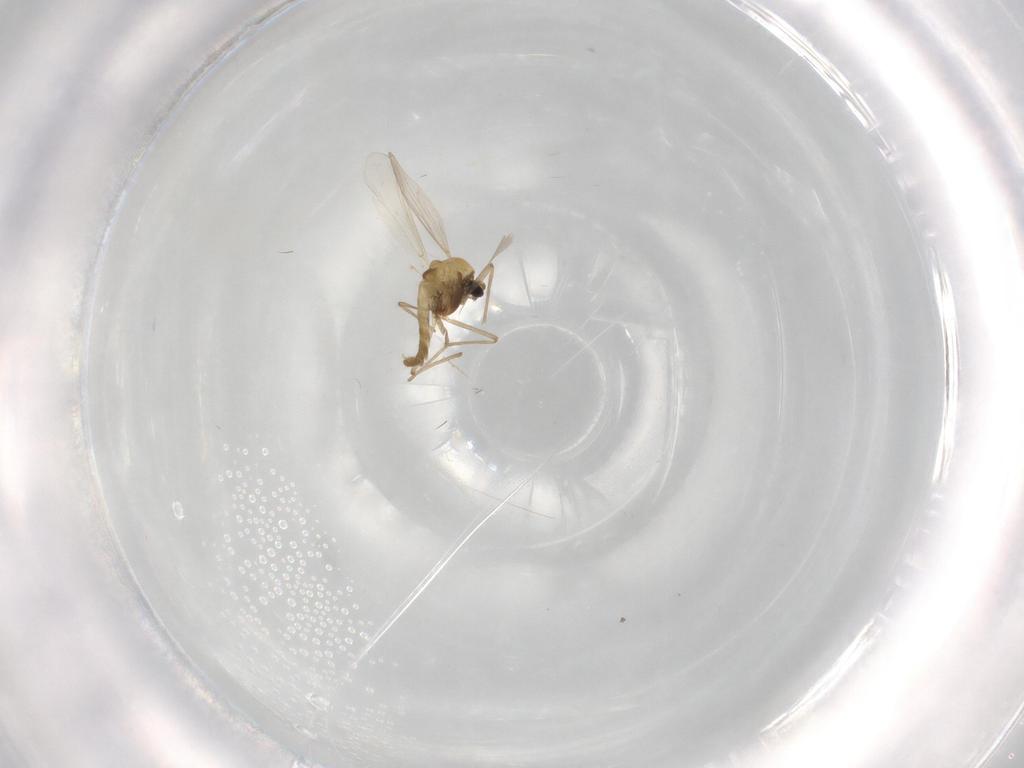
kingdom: Animalia
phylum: Arthropoda
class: Insecta
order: Diptera
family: Chironomidae
